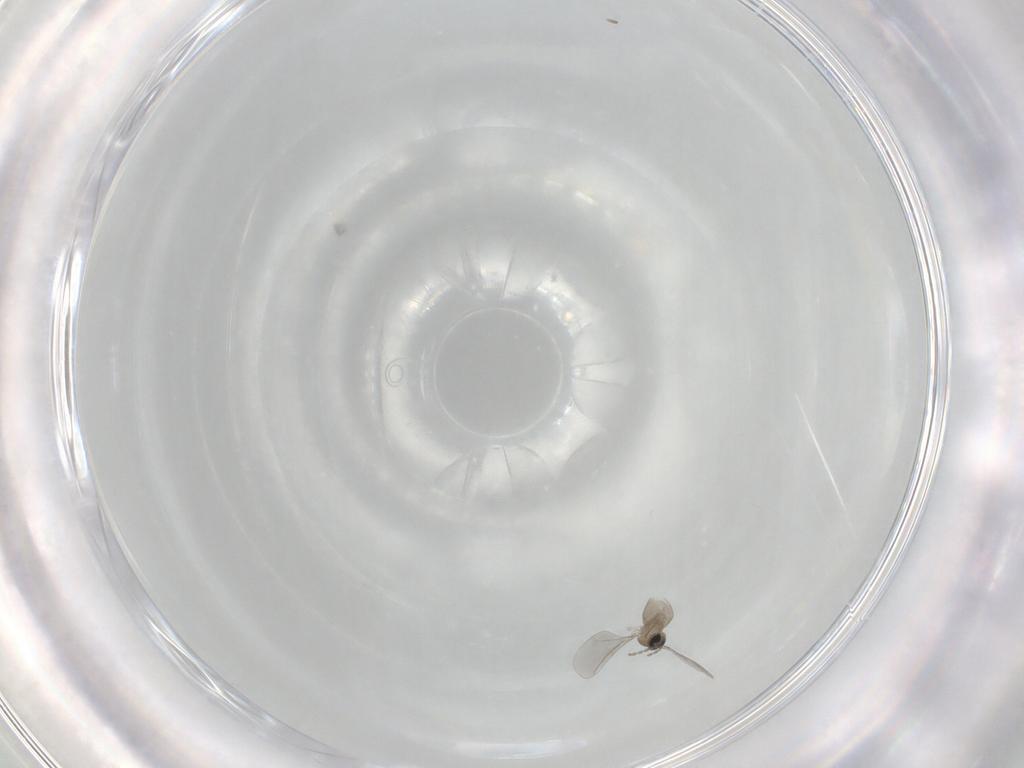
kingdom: Animalia
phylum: Arthropoda
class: Insecta
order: Diptera
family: Cecidomyiidae
